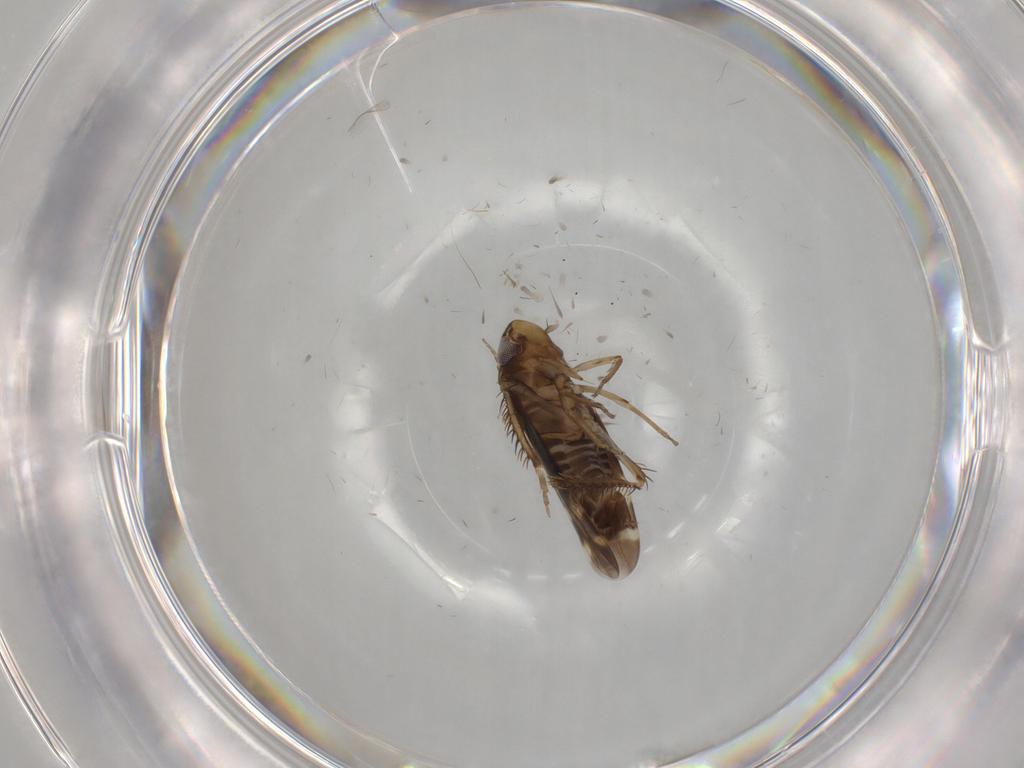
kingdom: Animalia
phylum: Arthropoda
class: Insecta
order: Hemiptera
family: Cicadellidae
